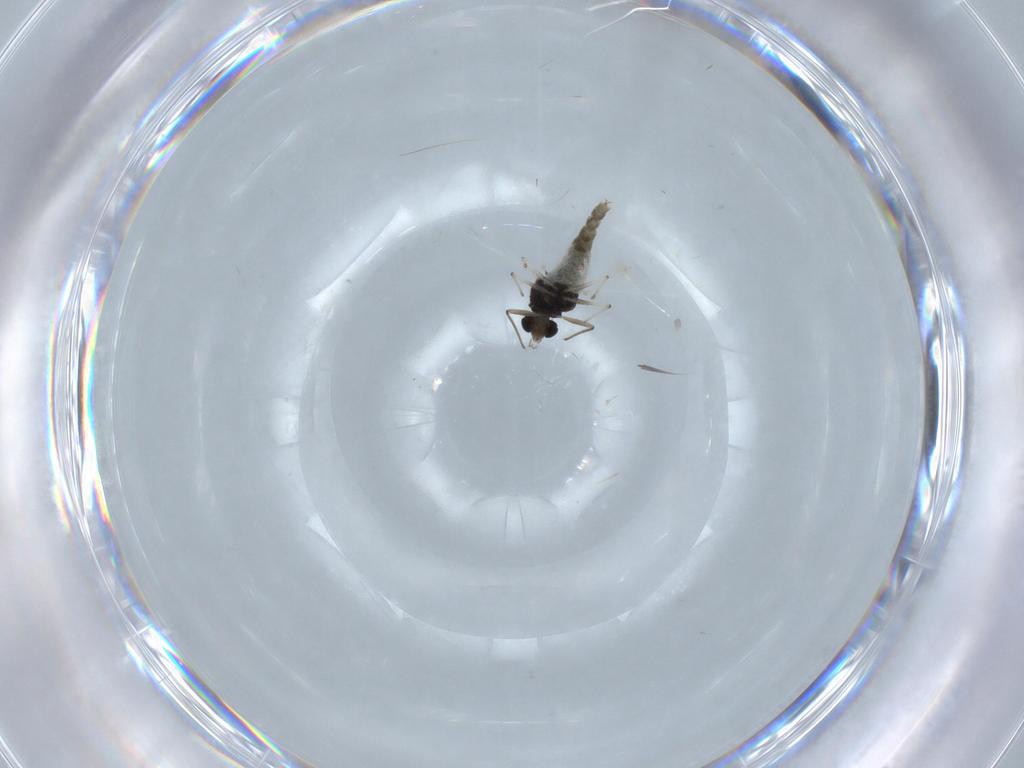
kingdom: Animalia
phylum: Arthropoda
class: Insecta
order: Diptera
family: Chironomidae
